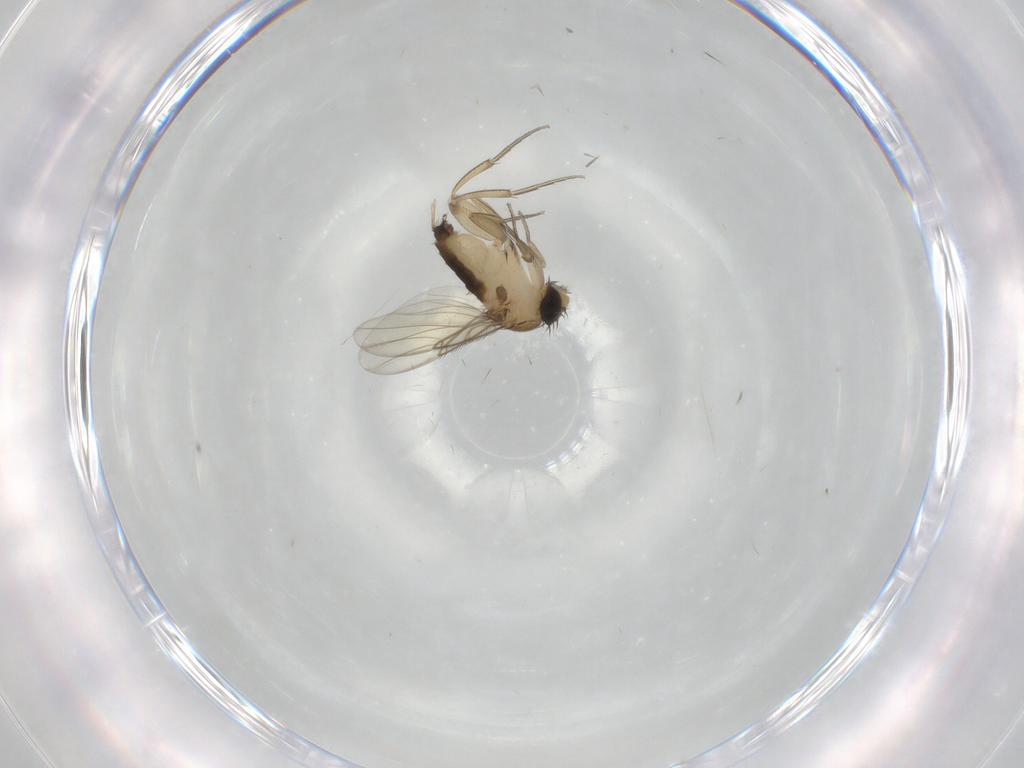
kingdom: Animalia
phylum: Arthropoda
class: Insecta
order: Diptera
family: Phoridae
